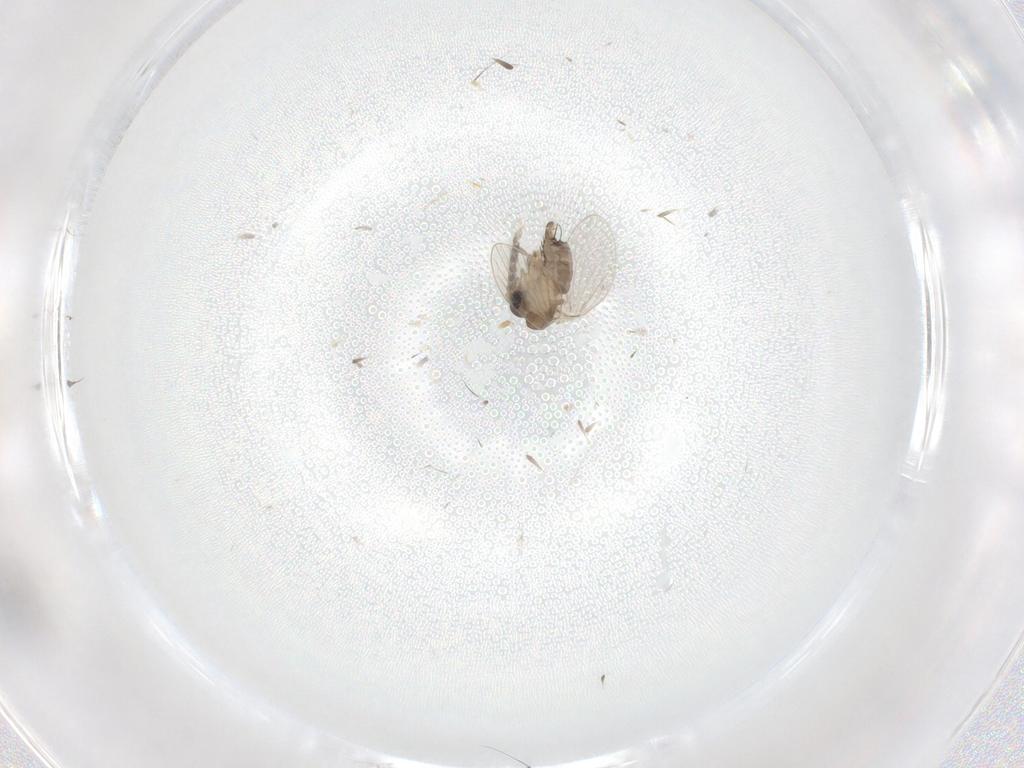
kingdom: Animalia
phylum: Arthropoda
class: Insecta
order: Diptera
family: Psychodidae
